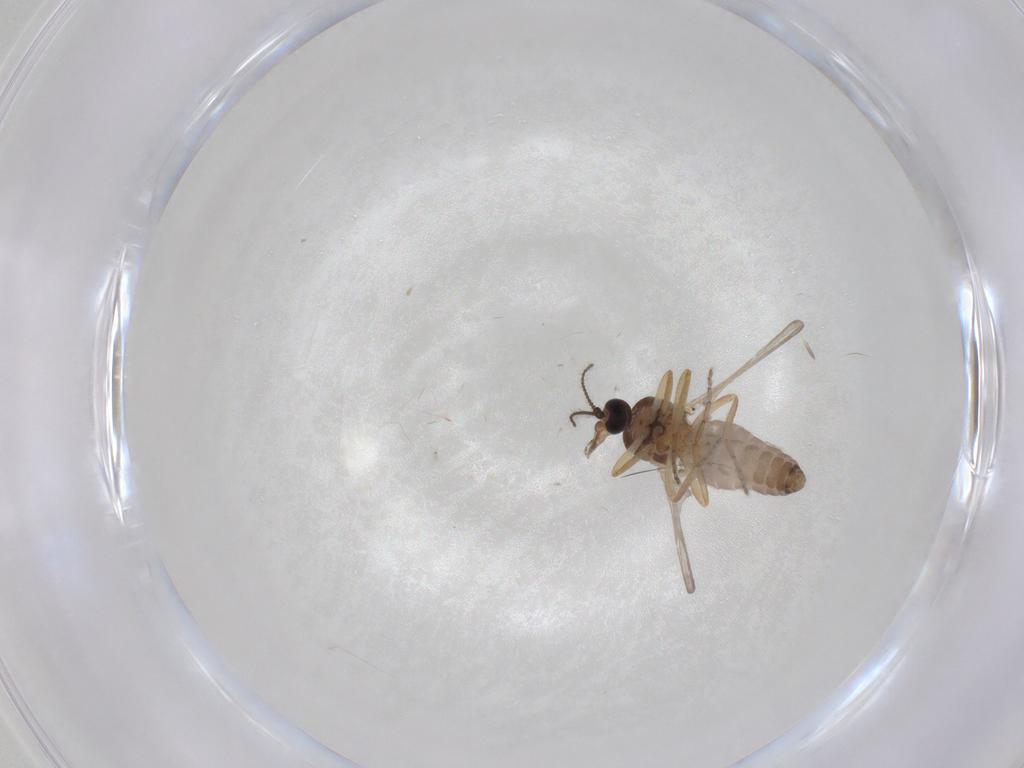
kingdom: Animalia
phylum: Arthropoda
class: Insecta
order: Diptera
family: Ceratopogonidae
